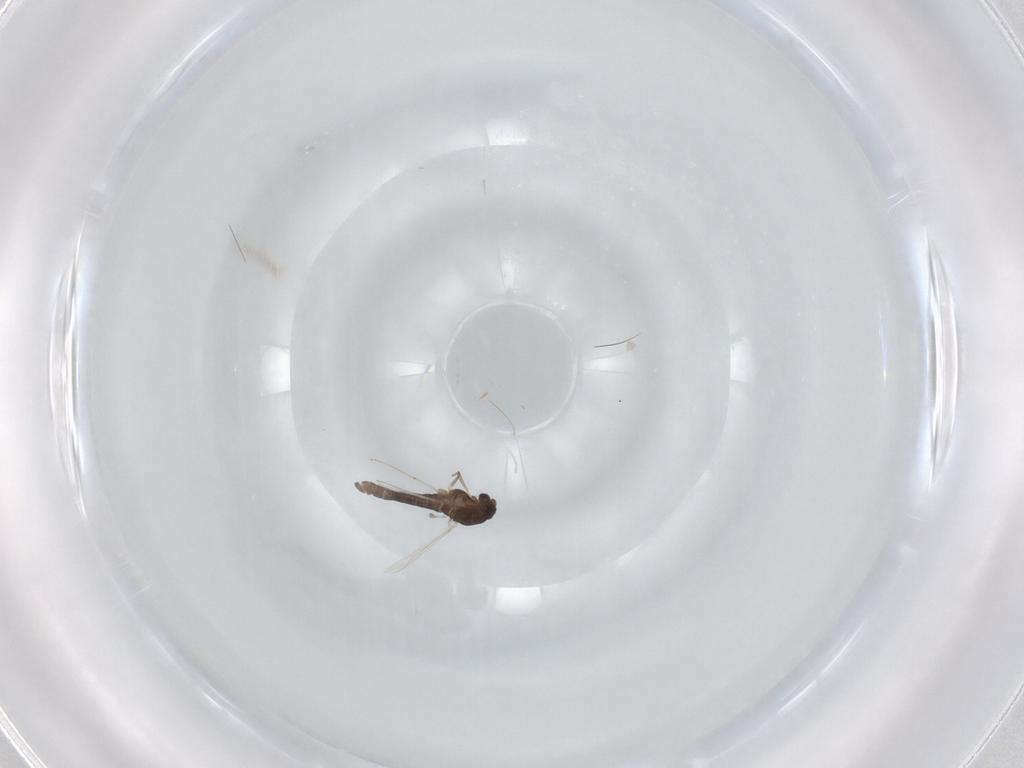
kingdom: Animalia
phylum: Arthropoda
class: Insecta
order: Diptera
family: Chironomidae
